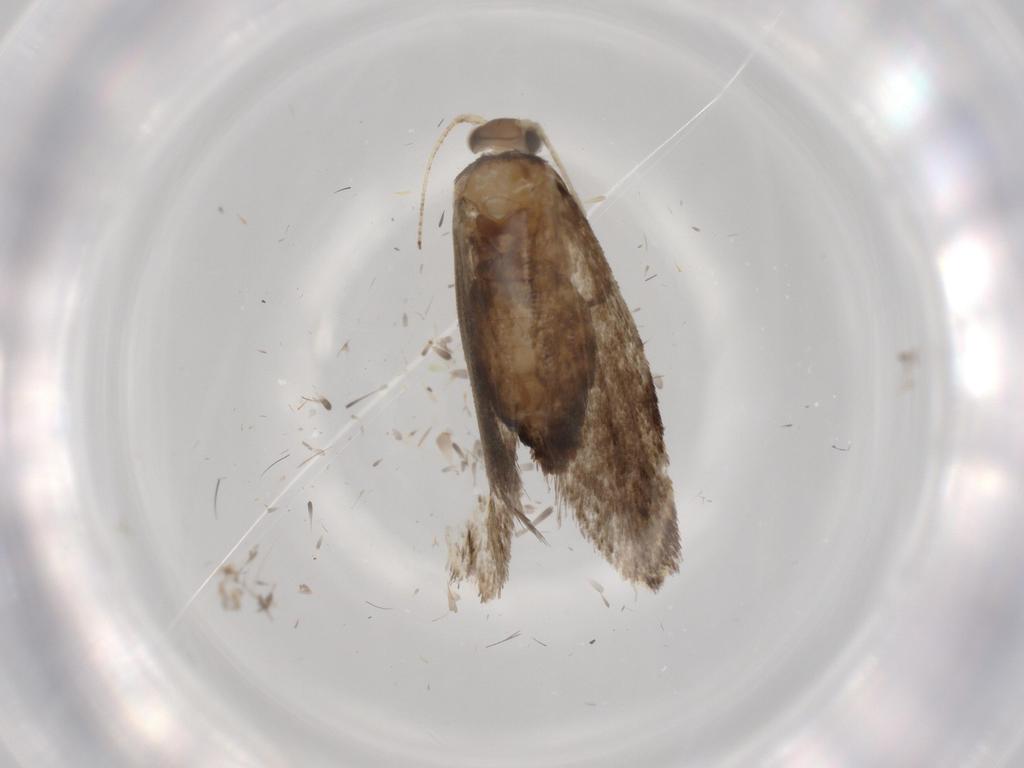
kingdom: Animalia
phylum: Arthropoda
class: Insecta
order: Lepidoptera
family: Tineidae
